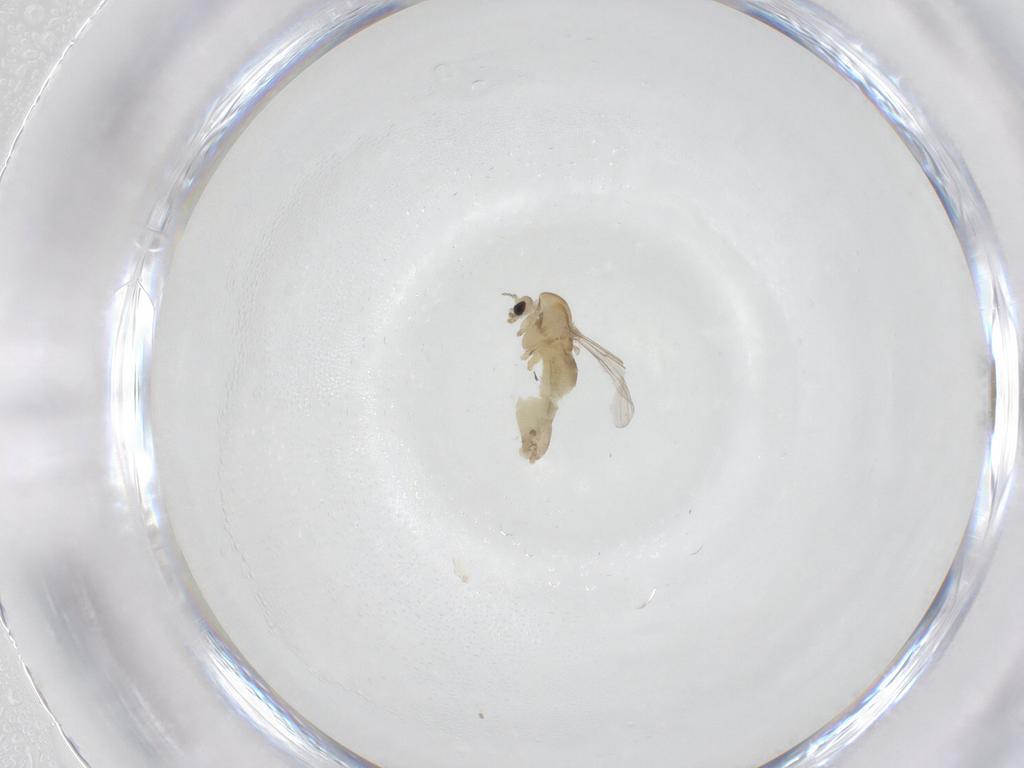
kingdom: Animalia
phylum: Arthropoda
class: Insecta
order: Diptera
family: Chironomidae
